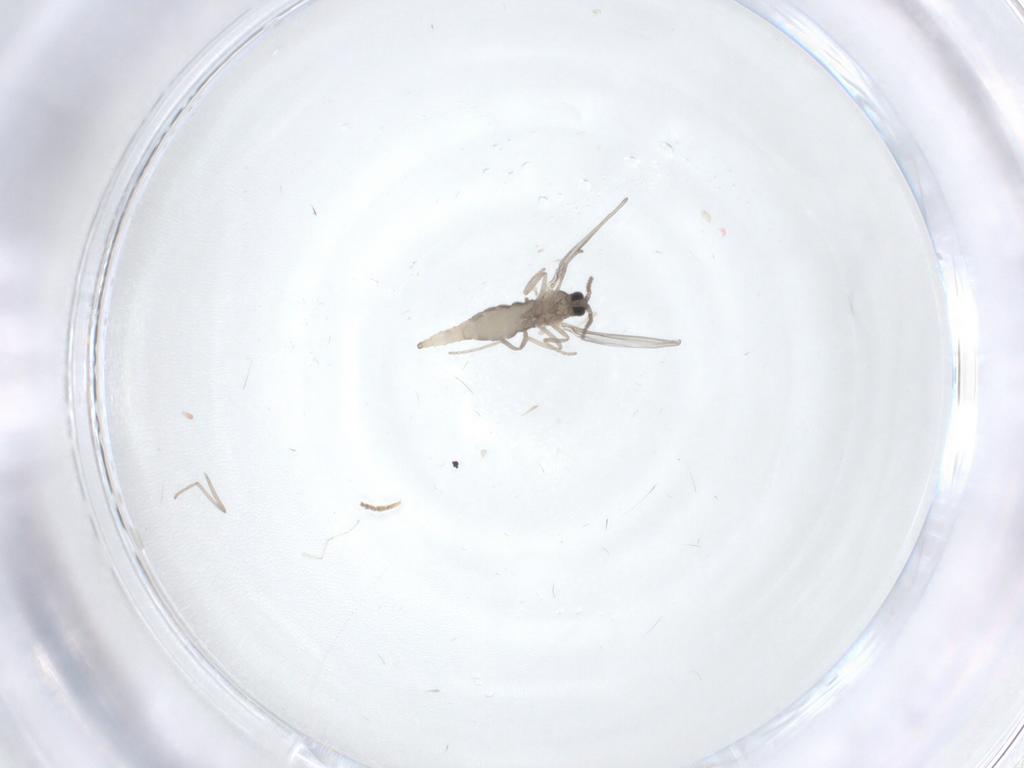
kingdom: Animalia
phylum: Arthropoda
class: Insecta
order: Diptera
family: Cecidomyiidae
